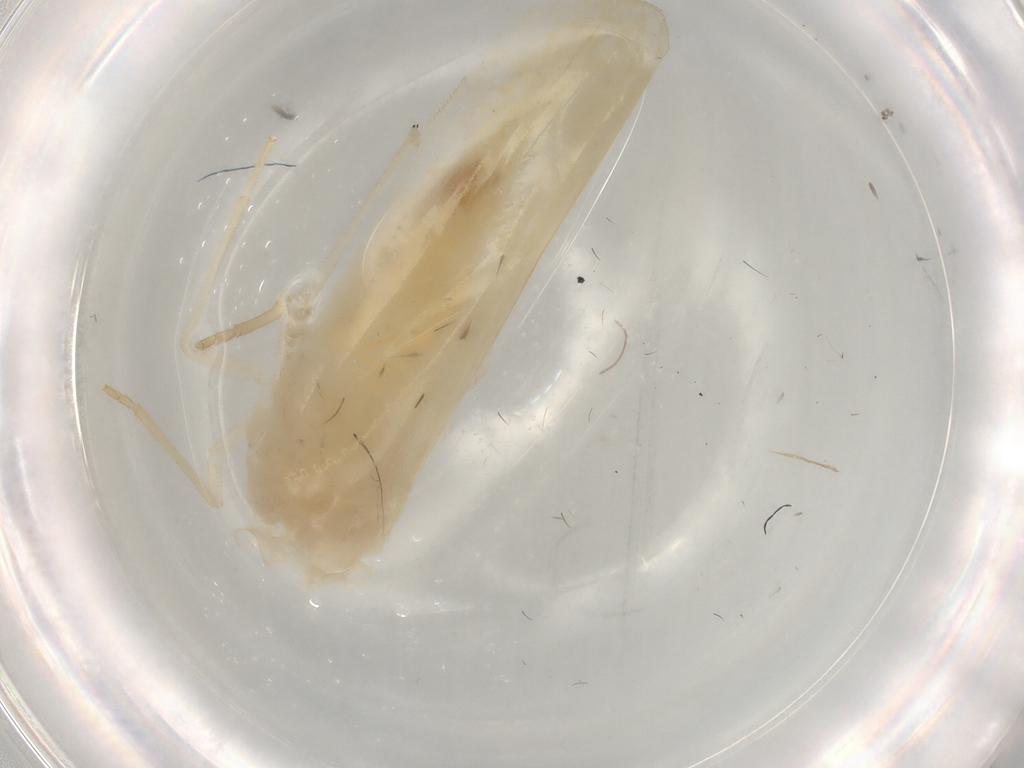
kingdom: Animalia
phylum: Arthropoda
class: Insecta
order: Hemiptera
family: Derbidae
